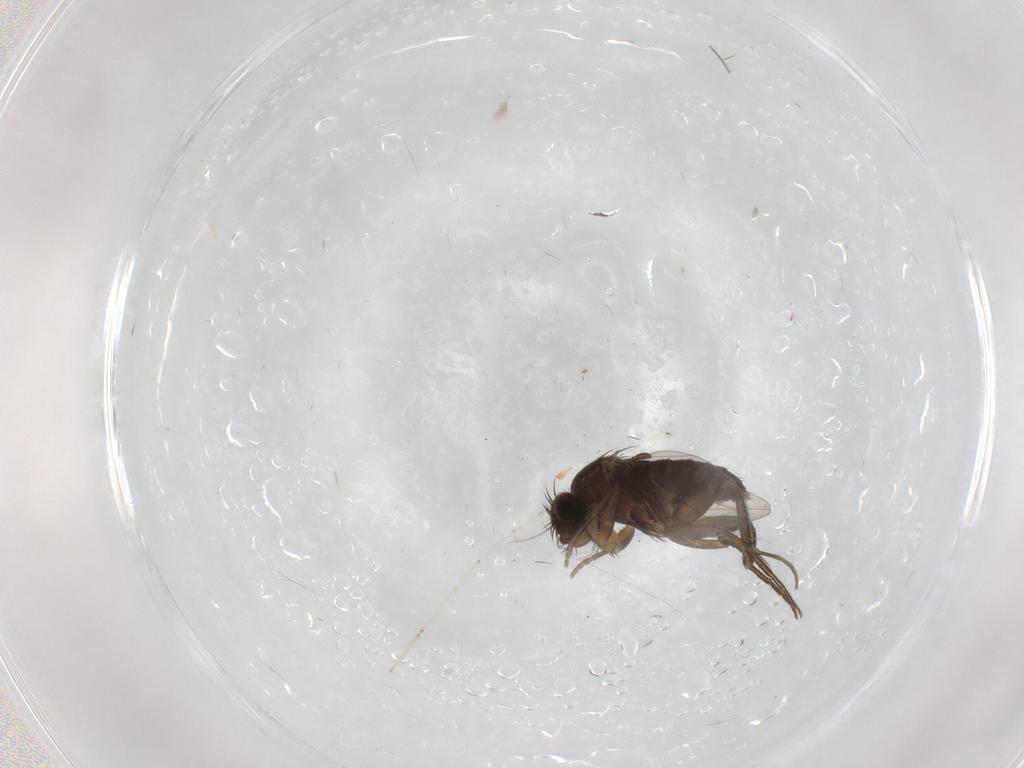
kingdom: Animalia
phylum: Arthropoda
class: Insecta
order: Diptera
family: Phoridae
